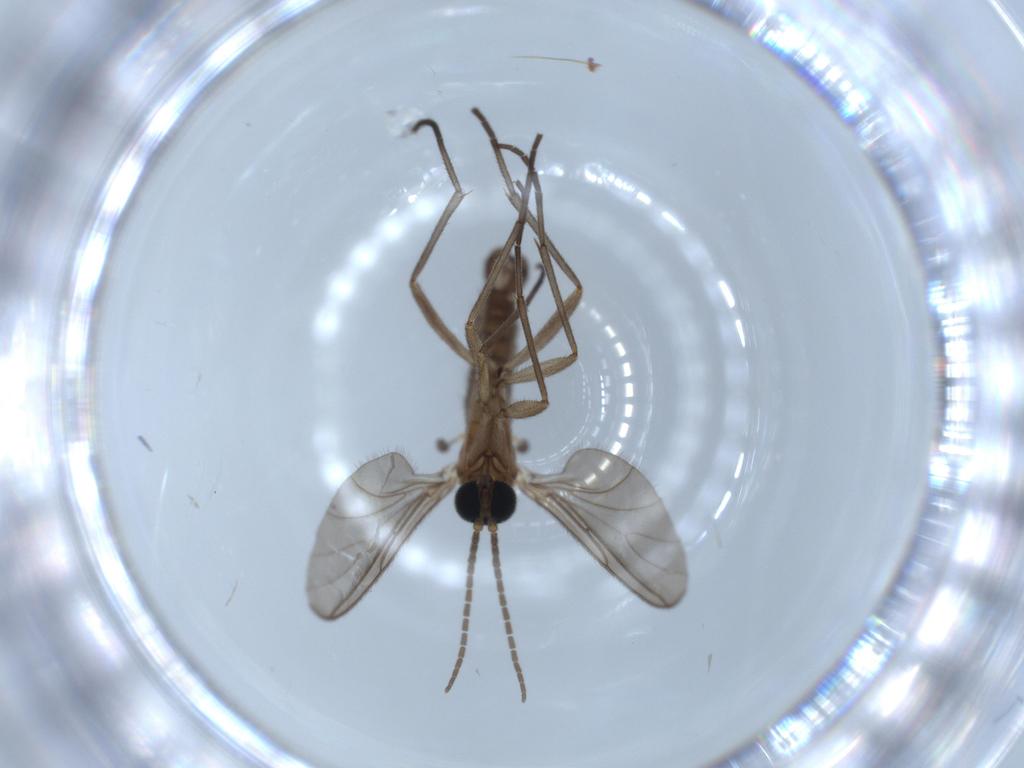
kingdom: Animalia
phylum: Arthropoda
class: Insecta
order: Diptera
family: Sciaridae
